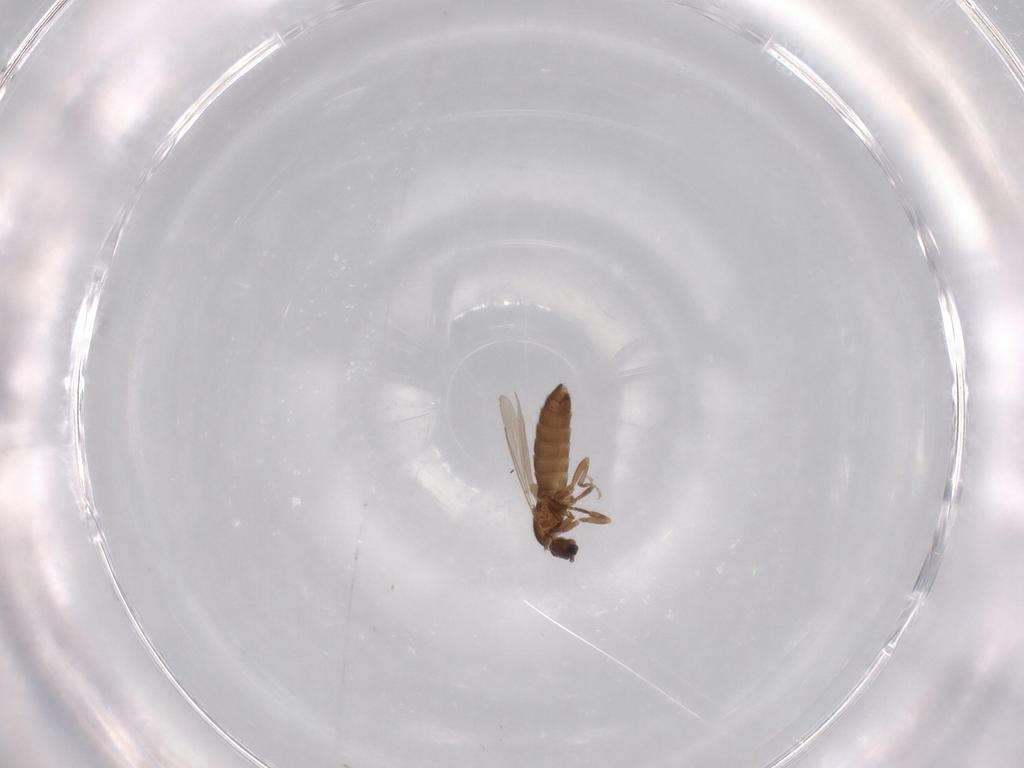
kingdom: Animalia
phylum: Arthropoda
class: Insecta
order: Diptera
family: Scatopsidae
